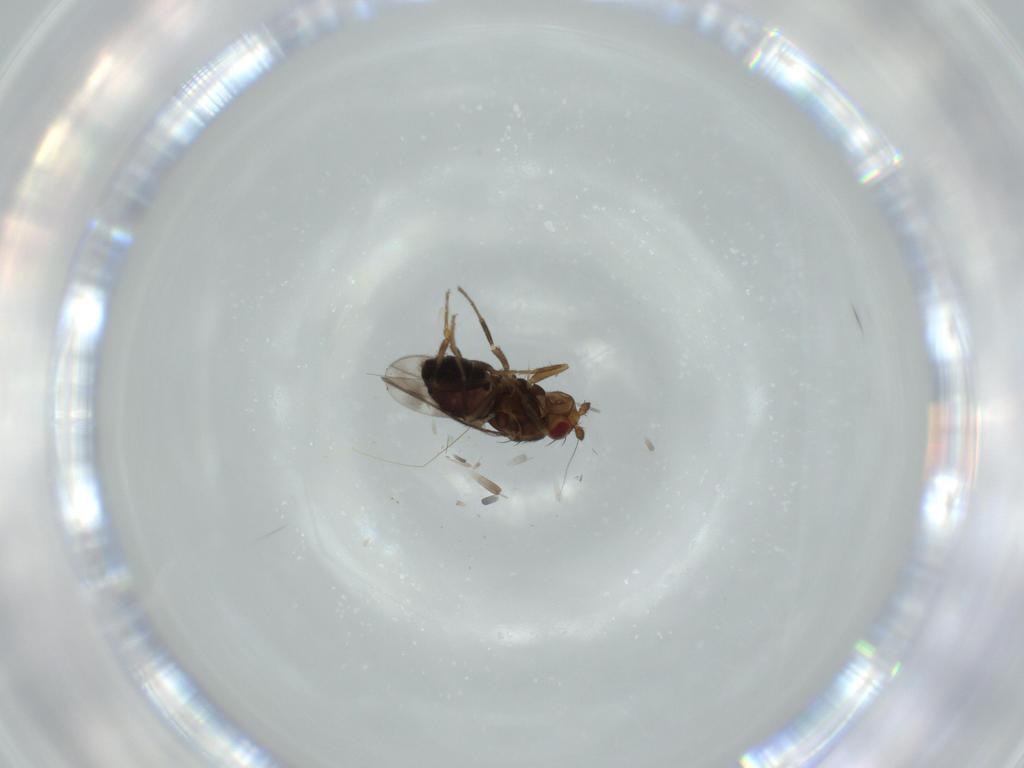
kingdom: Animalia
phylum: Arthropoda
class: Insecta
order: Diptera
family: Sphaeroceridae
